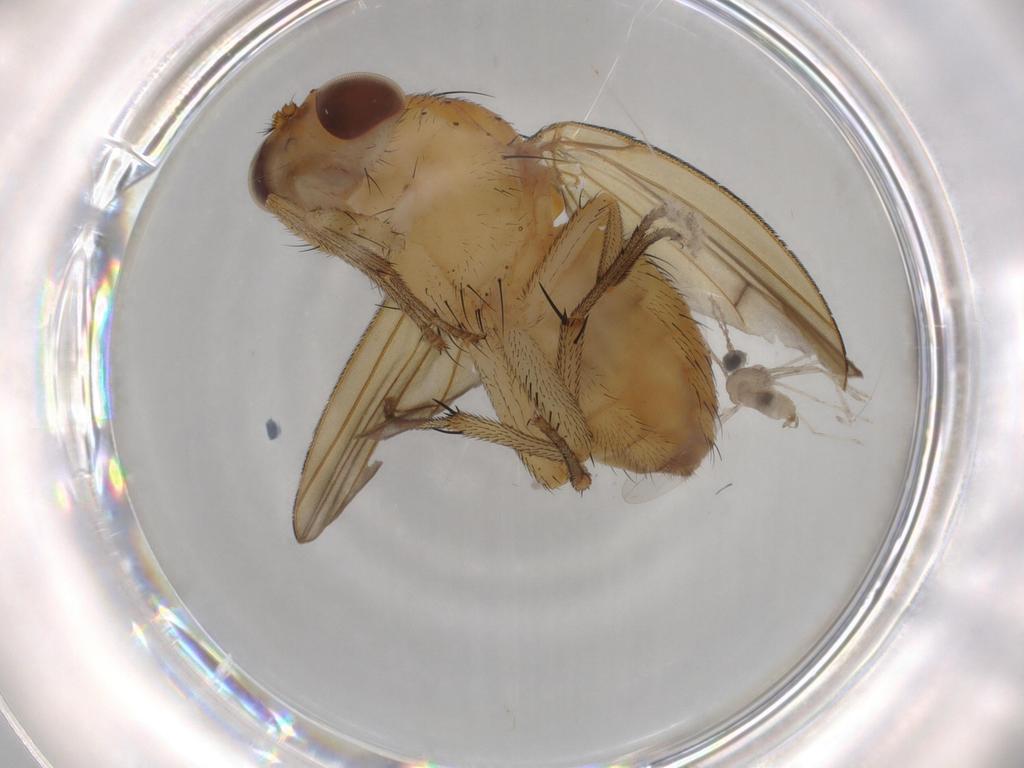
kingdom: Animalia
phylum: Arthropoda
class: Insecta
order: Diptera
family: Lauxaniidae
